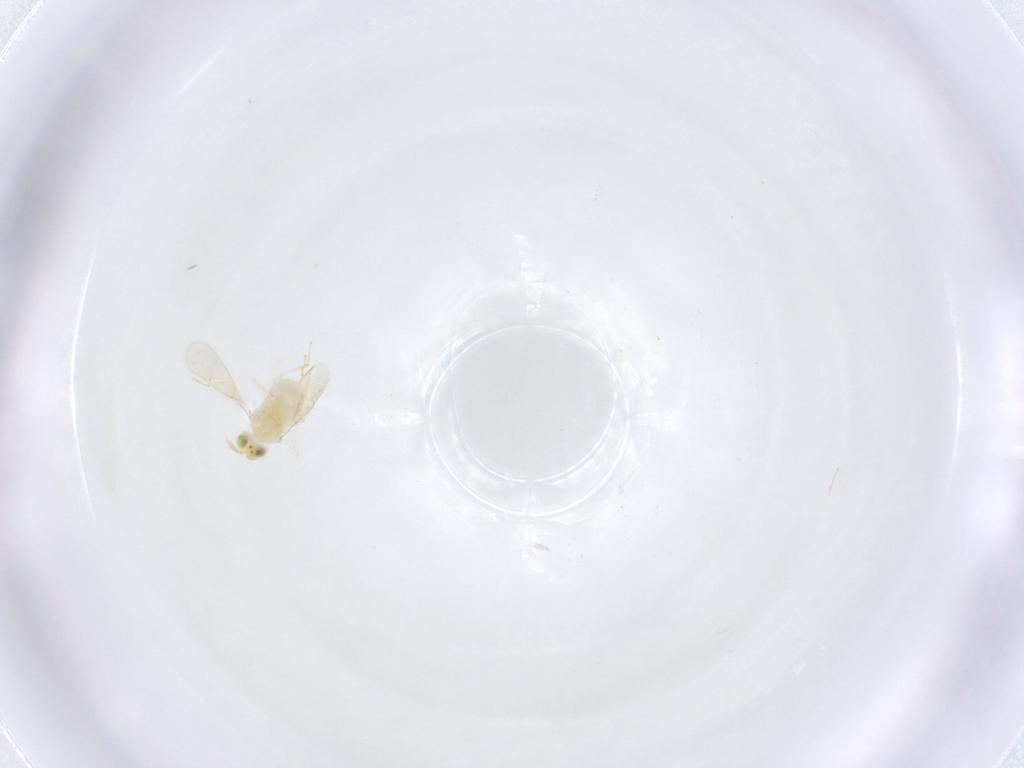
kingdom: Animalia
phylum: Arthropoda
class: Insecta
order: Hymenoptera
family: Aphelinidae
